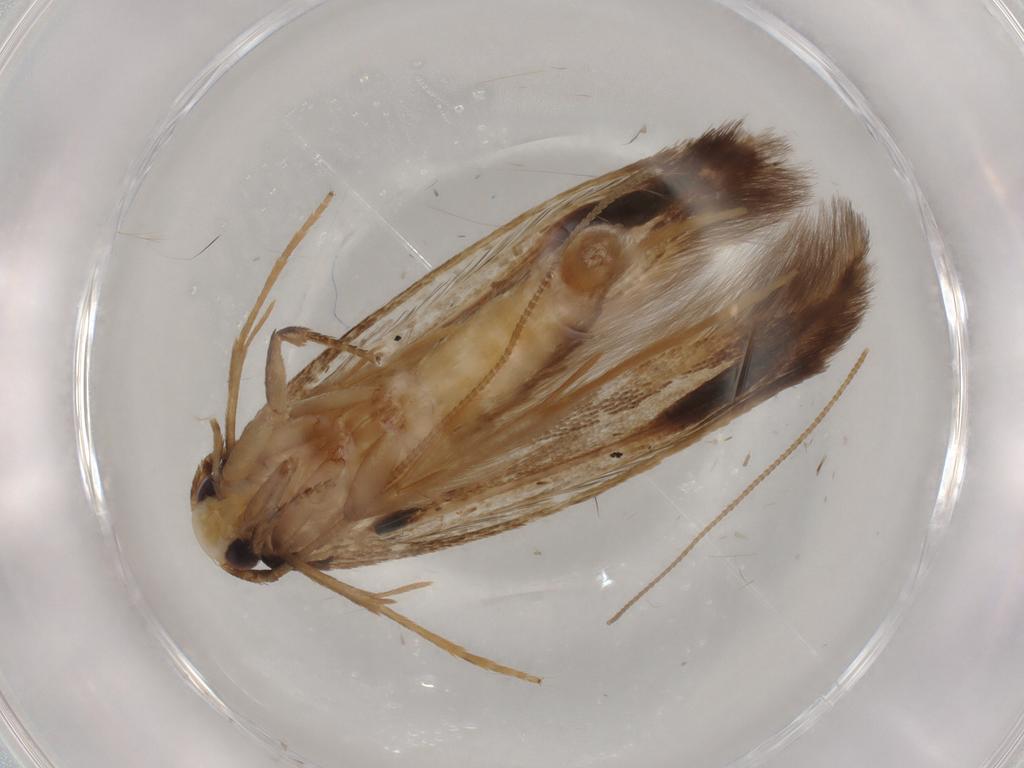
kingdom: Animalia
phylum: Arthropoda
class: Insecta
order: Lepidoptera
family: Tineidae
